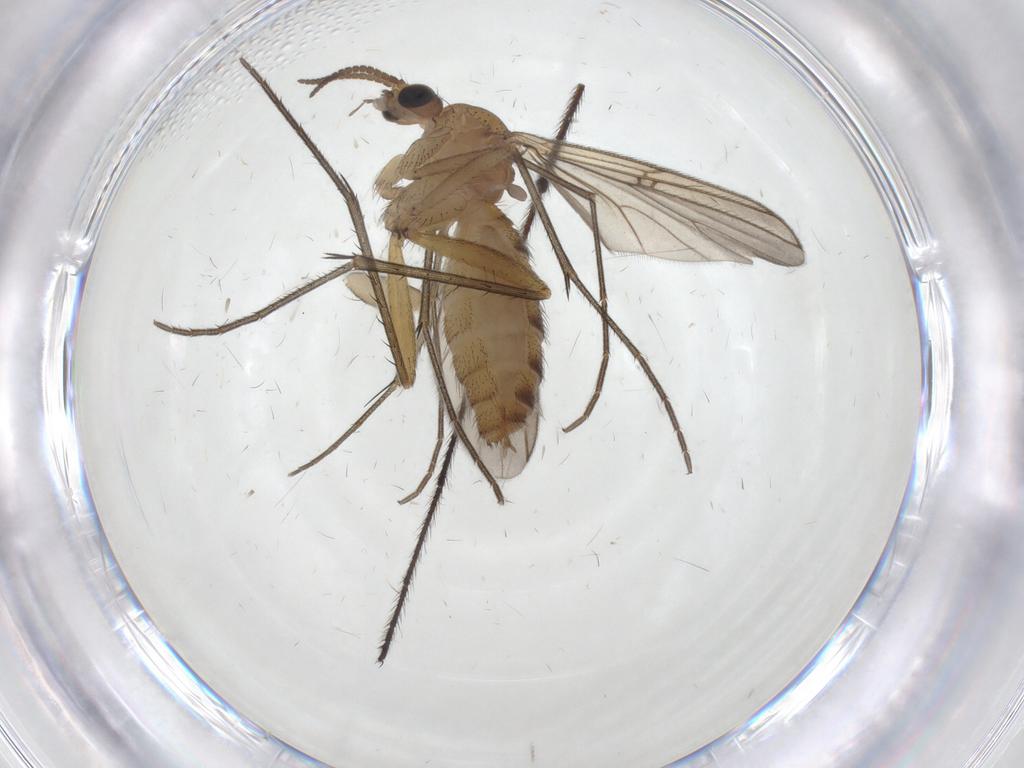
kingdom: Animalia
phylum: Arthropoda
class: Insecta
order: Diptera
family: Mycetophilidae
